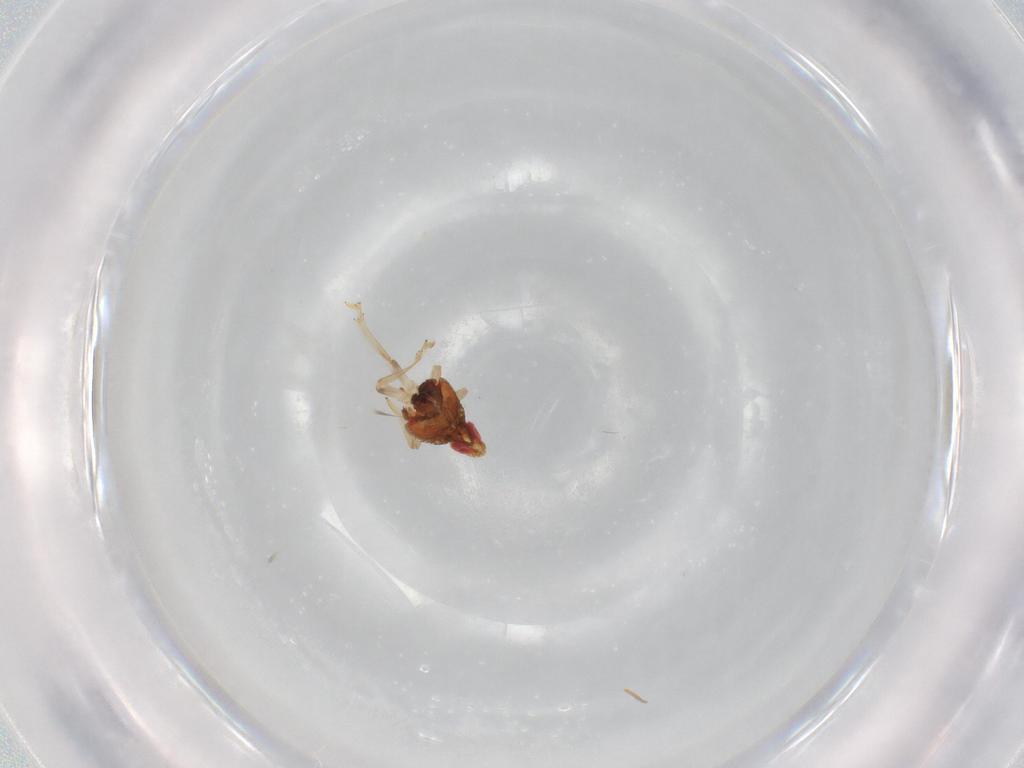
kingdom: Animalia
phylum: Arthropoda
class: Insecta
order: Hemiptera
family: Issidae
